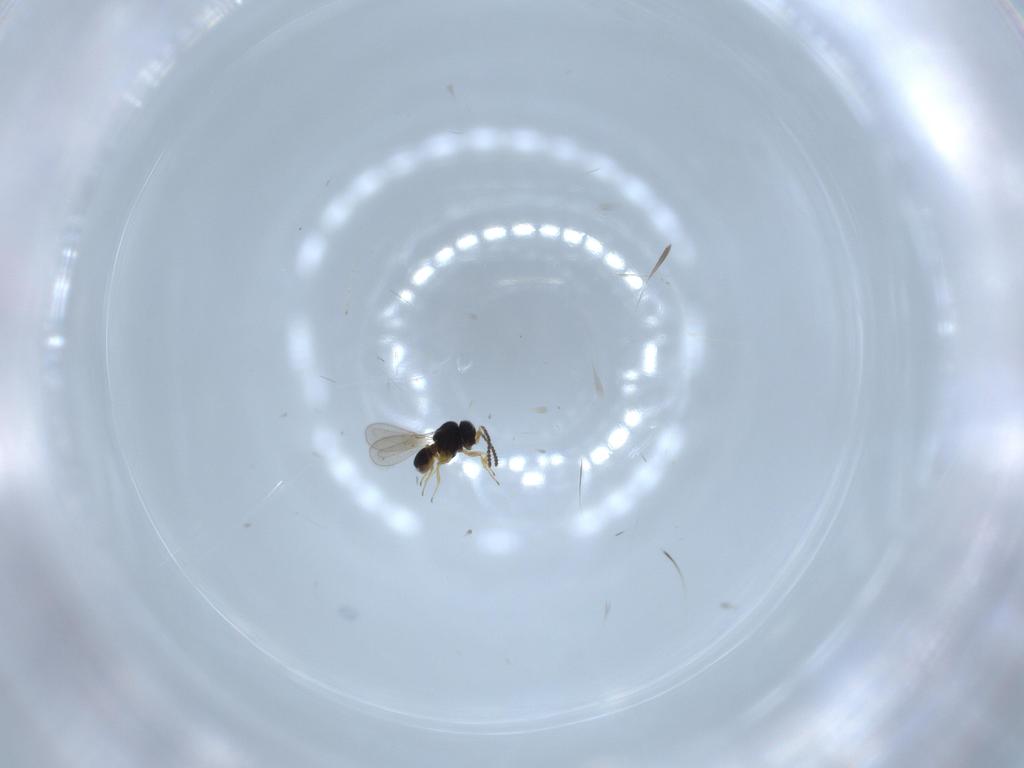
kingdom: Animalia
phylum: Arthropoda
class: Insecta
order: Hymenoptera
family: Scelionidae
